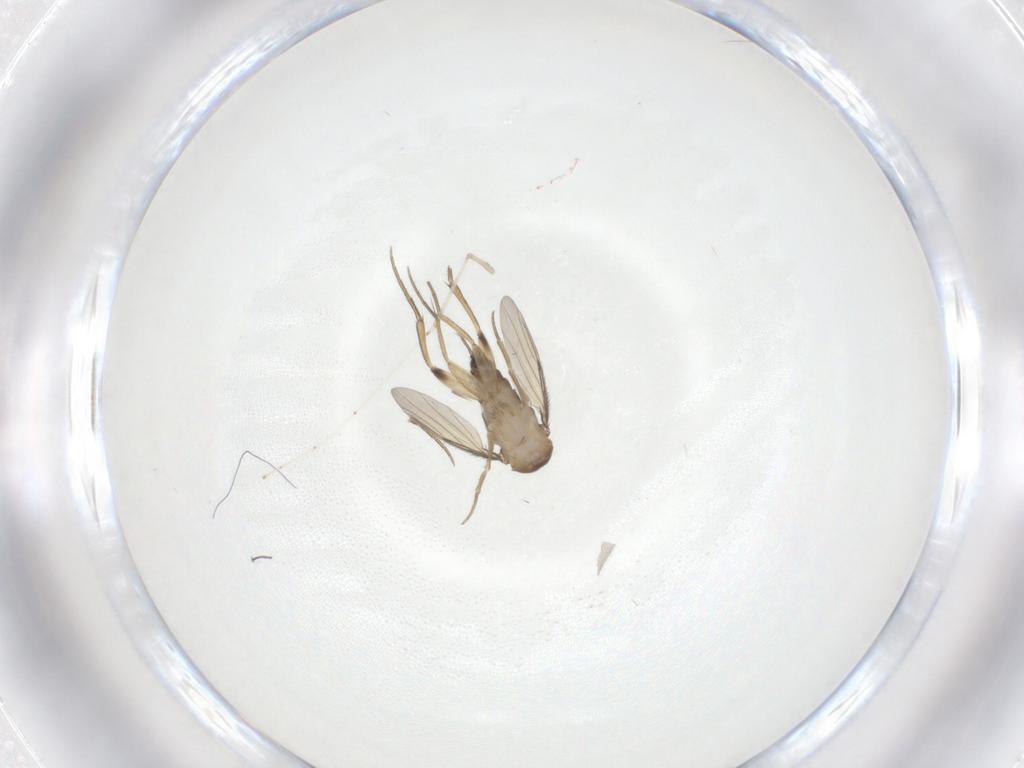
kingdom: Animalia
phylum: Arthropoda
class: Insecta
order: Diptera
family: Phoridae
